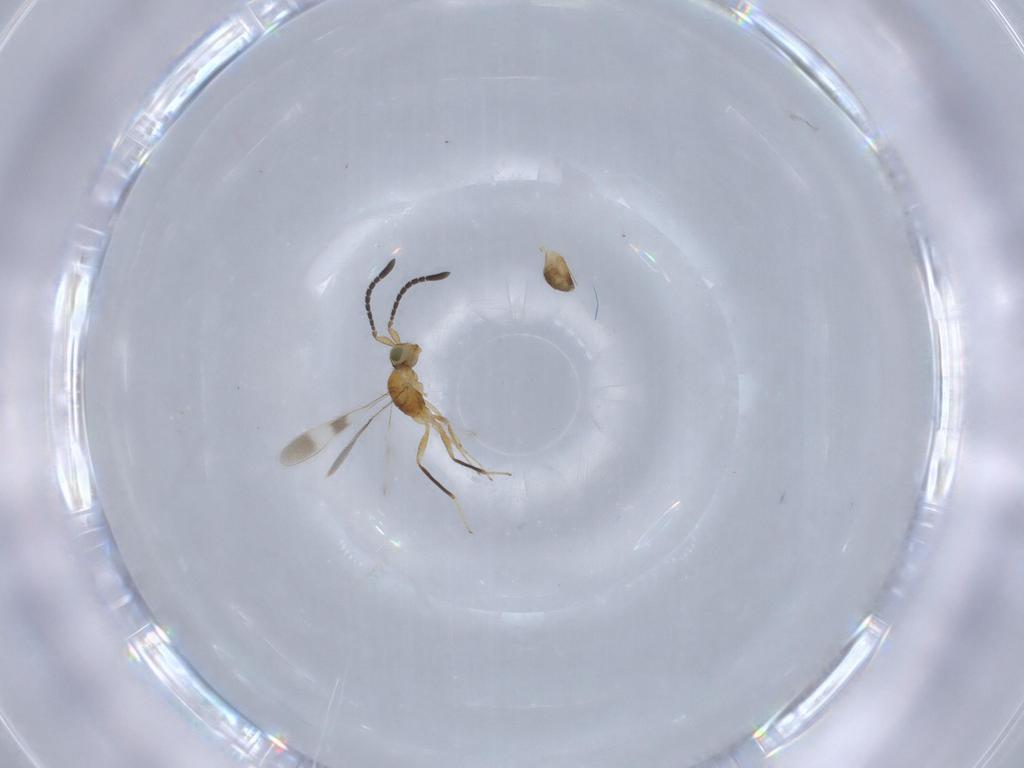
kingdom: Animalia
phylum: Arthropoda
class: Insecta
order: Hymenoptera
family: Mymaridae
